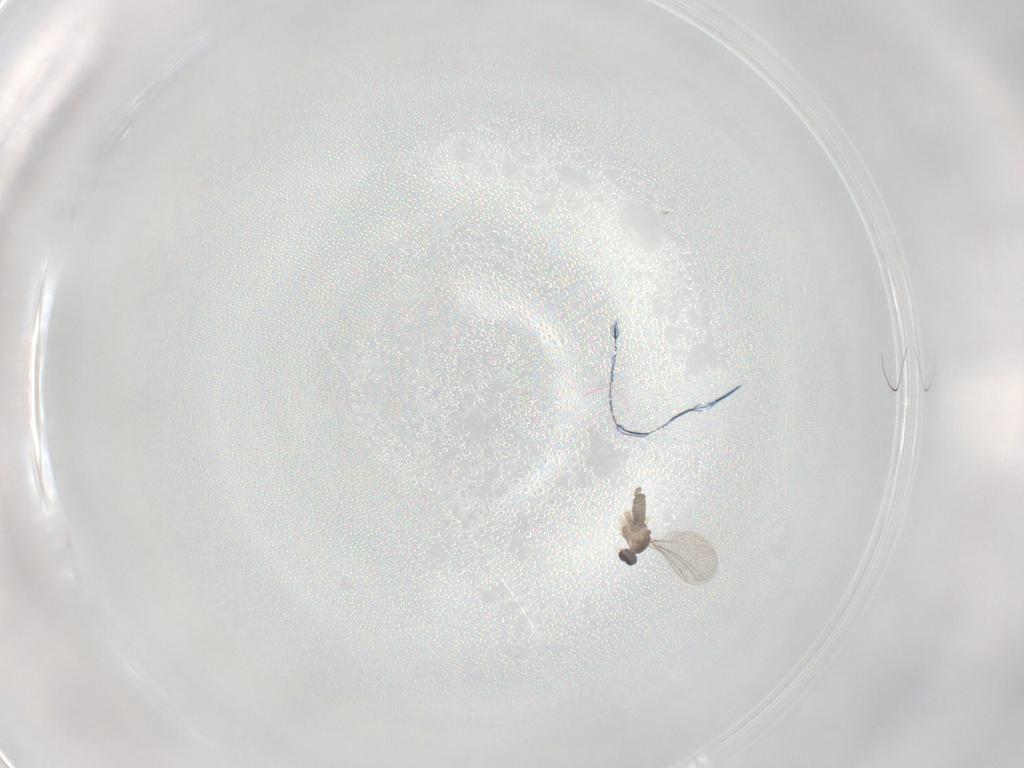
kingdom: Animalia
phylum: Arthropoda
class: Insecta
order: Diptera
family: Cecidomyiidae
